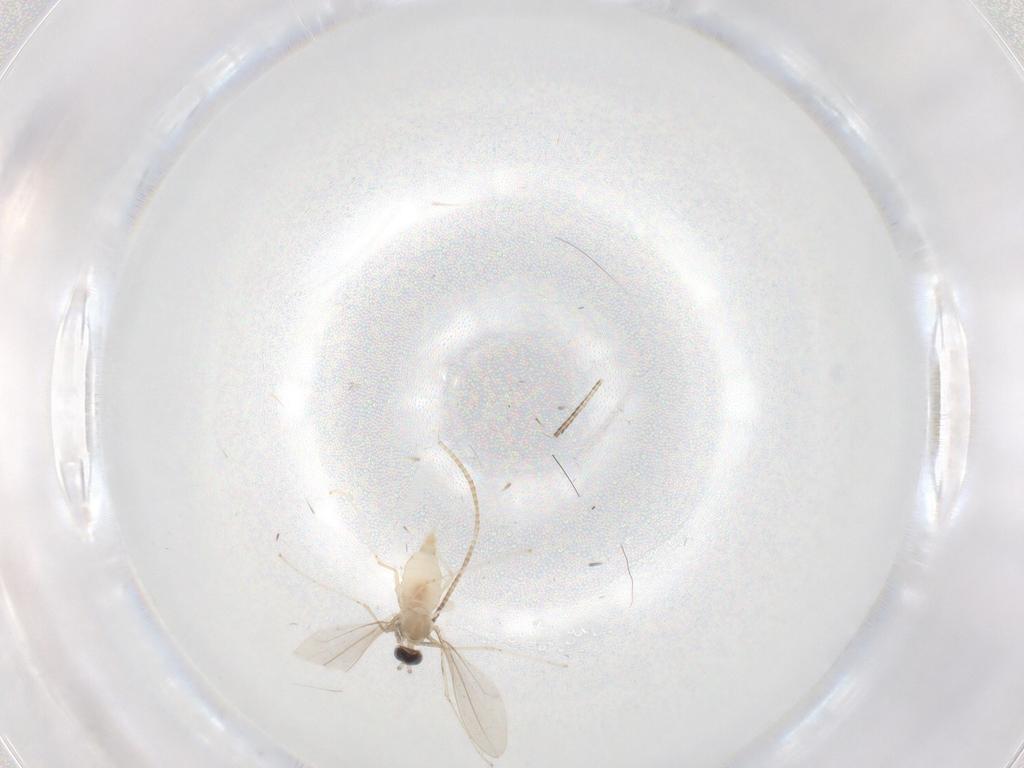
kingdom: Animalia
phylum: Arthropoda
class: Insecta
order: Diptera
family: Cecidomyiidae
